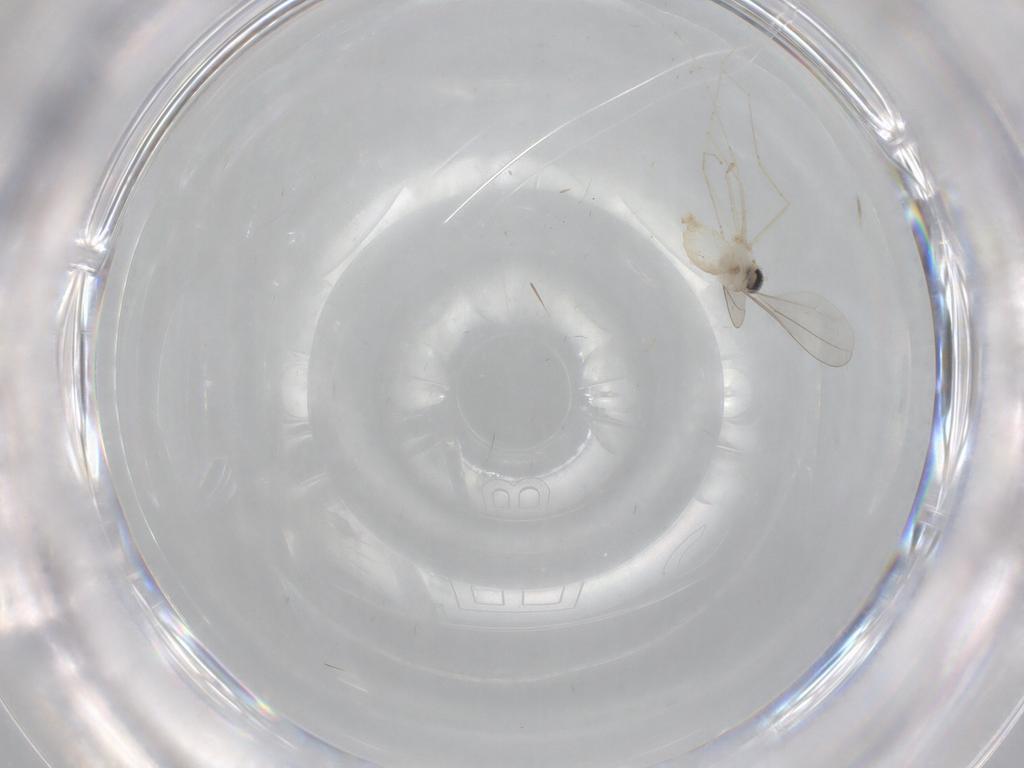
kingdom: Animalia
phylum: Arthropoda
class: Insecta
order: Diptera
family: Cecidomyiidae
